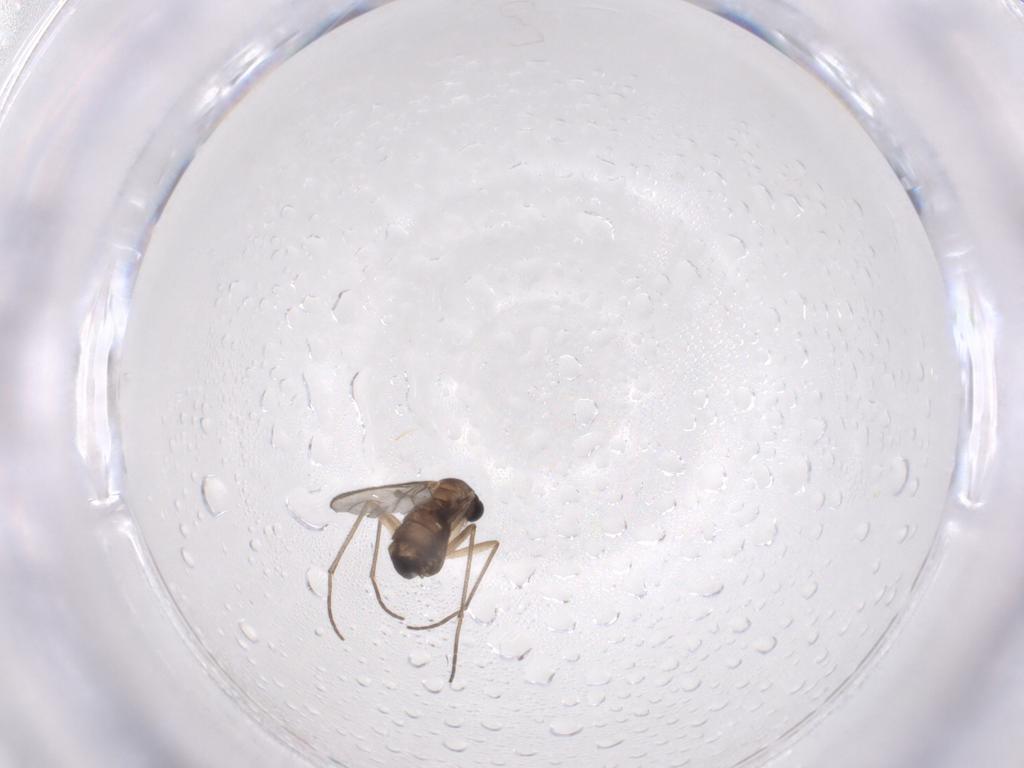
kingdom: Animalia
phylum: Arthropoda
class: Insecta
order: Diptera
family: Sciaridae
